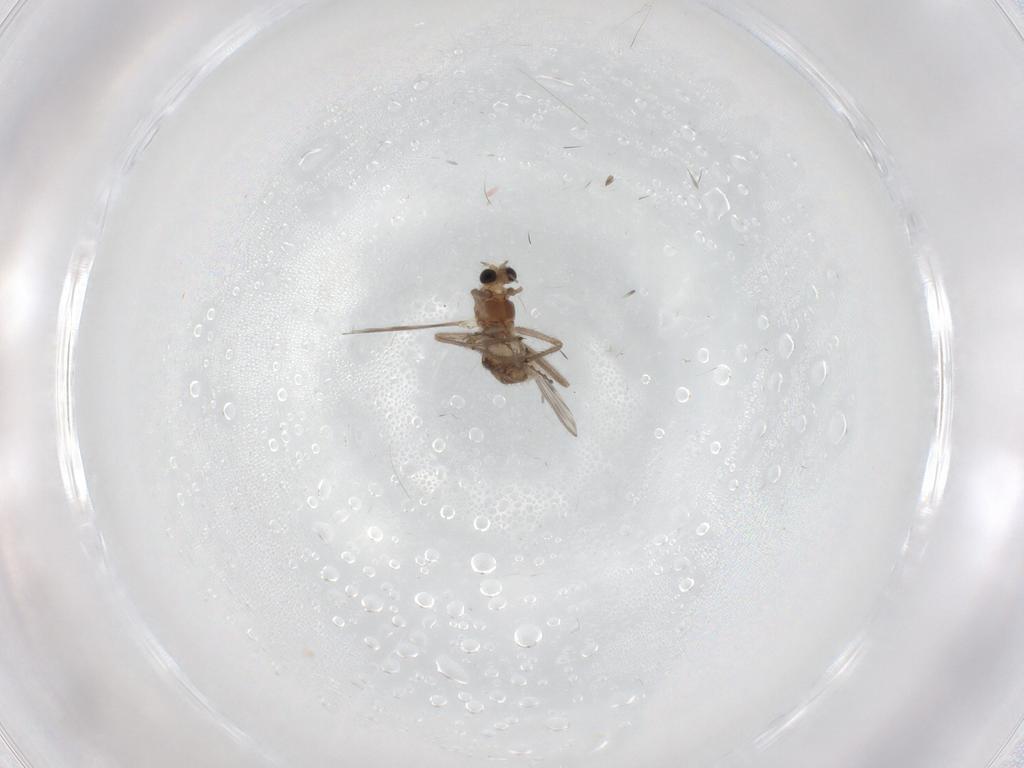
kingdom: Animalia
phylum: Arthropoda
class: Insecta
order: Diptera
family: Chironomidae
